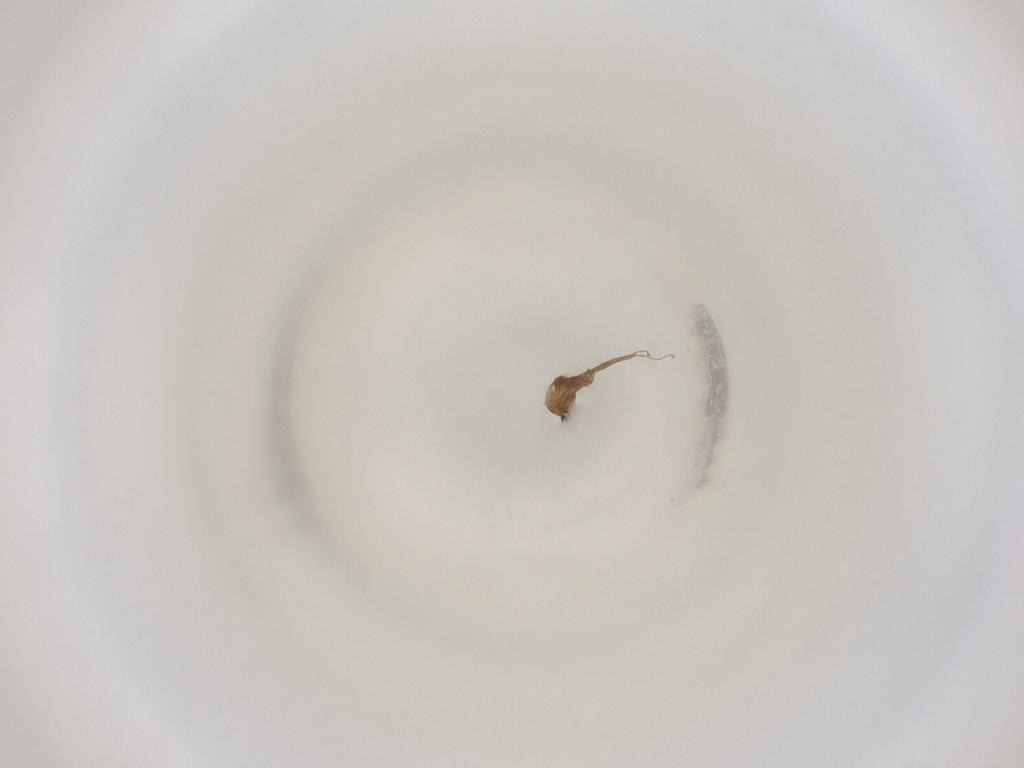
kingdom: Animalia
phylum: Arthropoda
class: Insecta
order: Diptera
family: Cecidomyiidae
